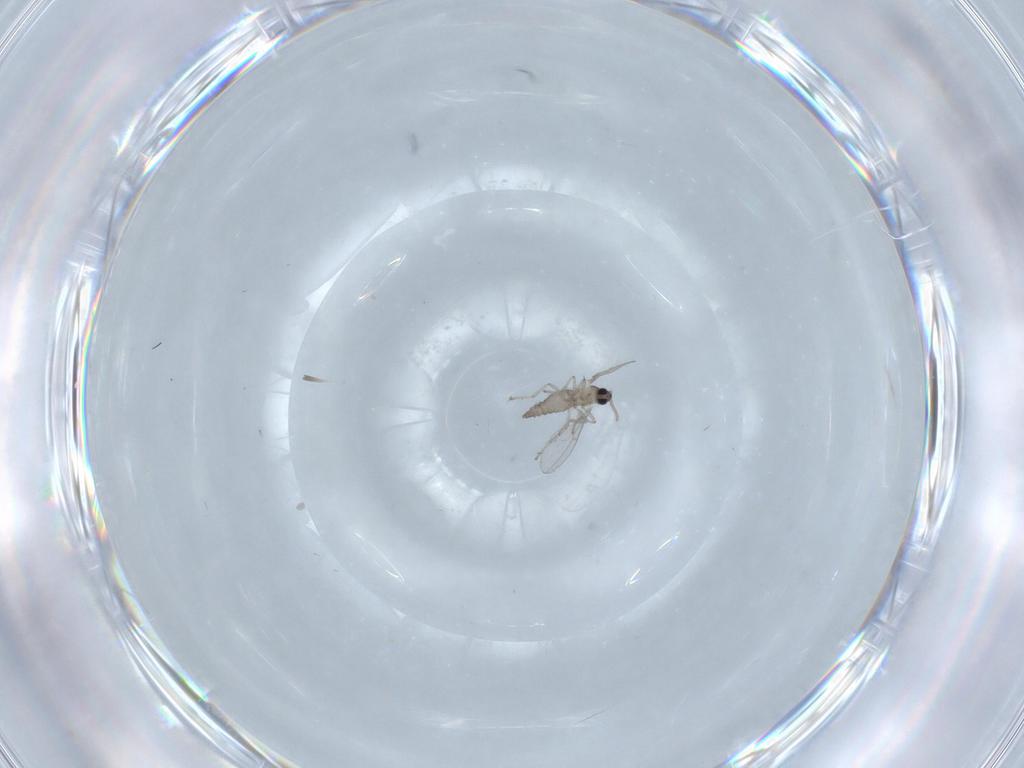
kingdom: Animalia
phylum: Arthropoda
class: Insecta
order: Diptera
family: Cecidomyiidae
